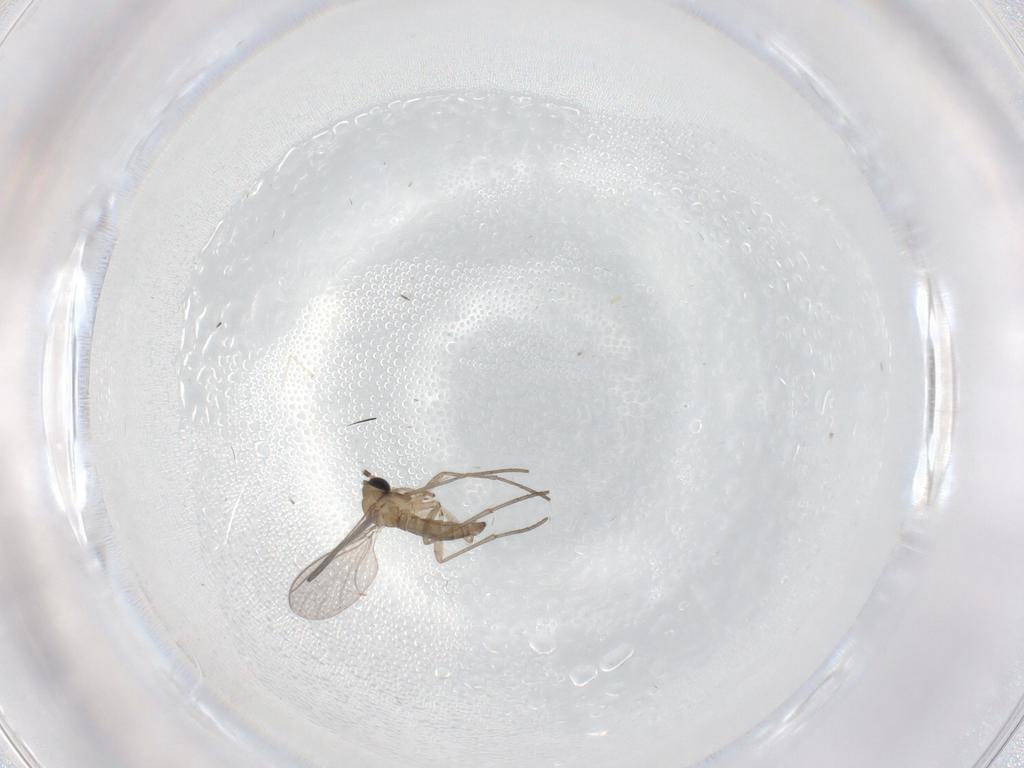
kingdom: Animalia
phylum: Arthropoda
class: Insecta
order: Diptera
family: Sciaridae
